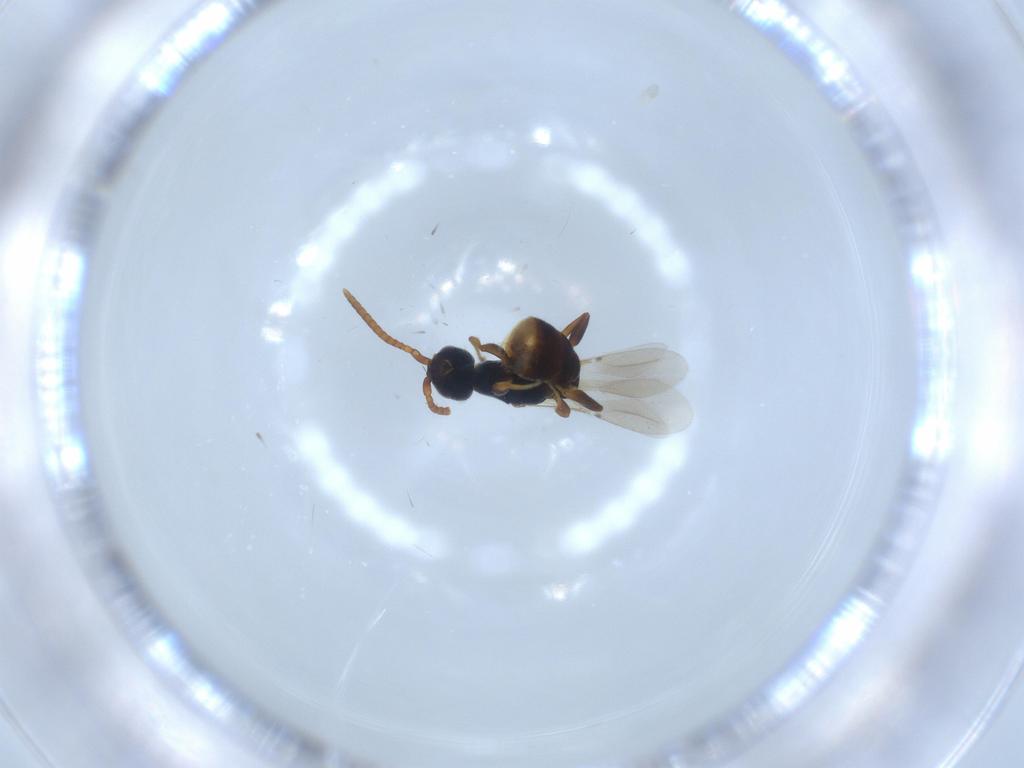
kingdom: Animalia
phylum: Arthropoda
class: Insecta
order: Hymenoptera
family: Bethylidae
